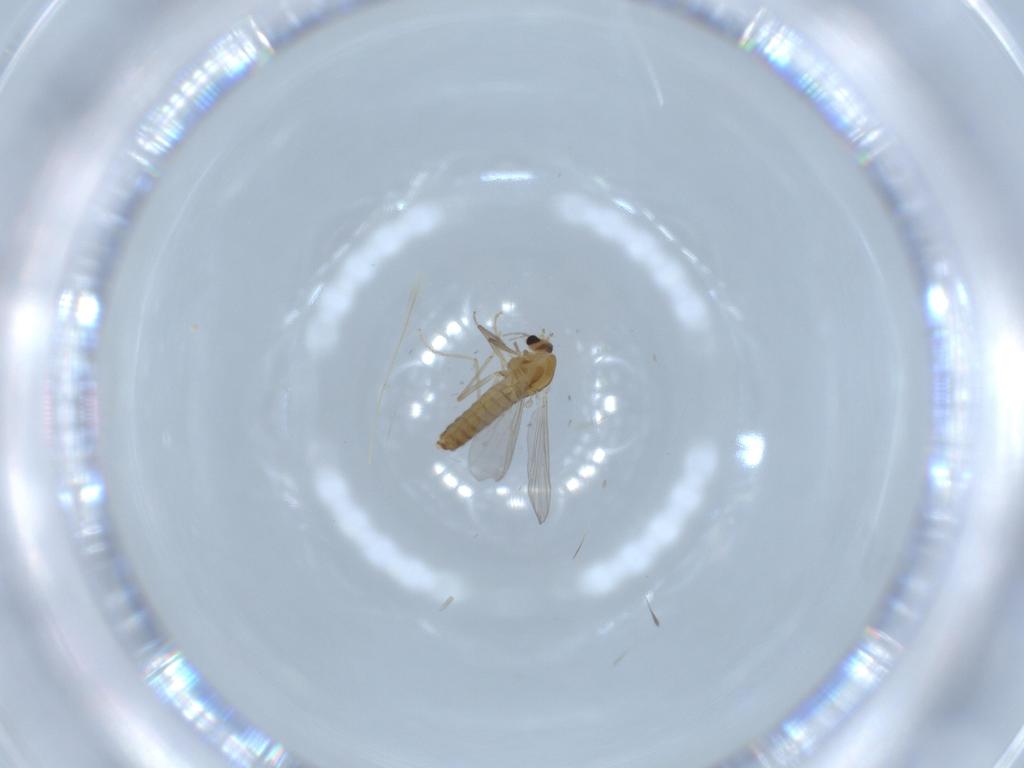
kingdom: Animalia
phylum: Arthropoda
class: Insecta
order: Diptera
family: Chironomidae
